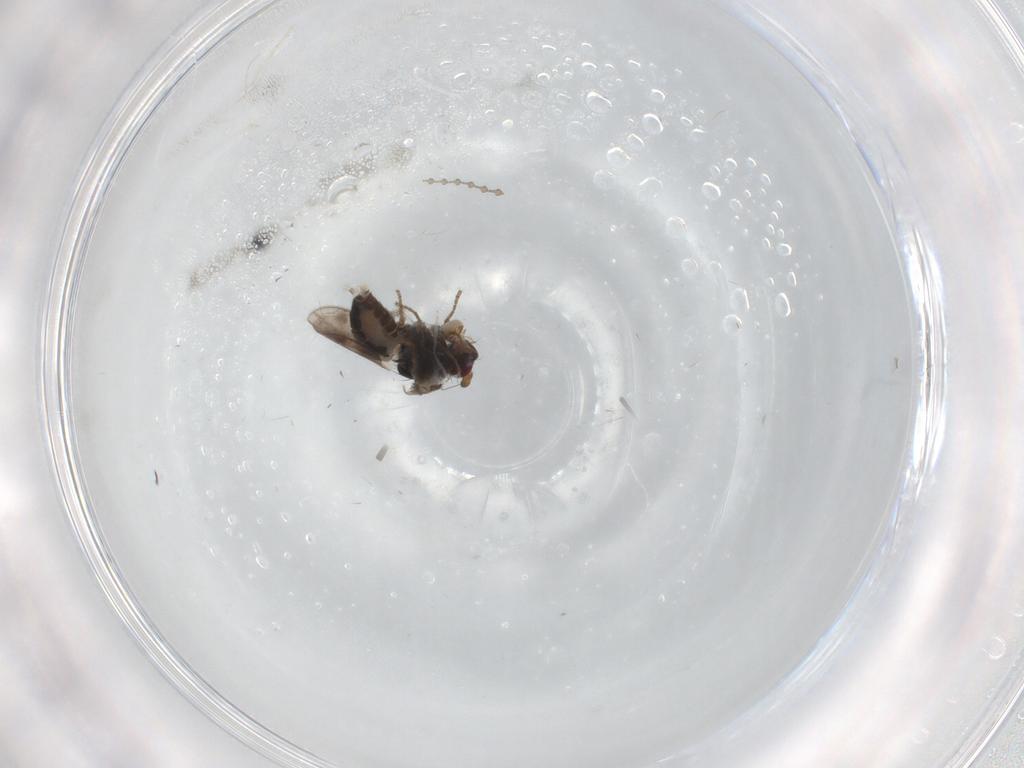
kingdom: Animalia
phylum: Arthropoda
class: Insecta
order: Diptera
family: Sphaeroceridae
